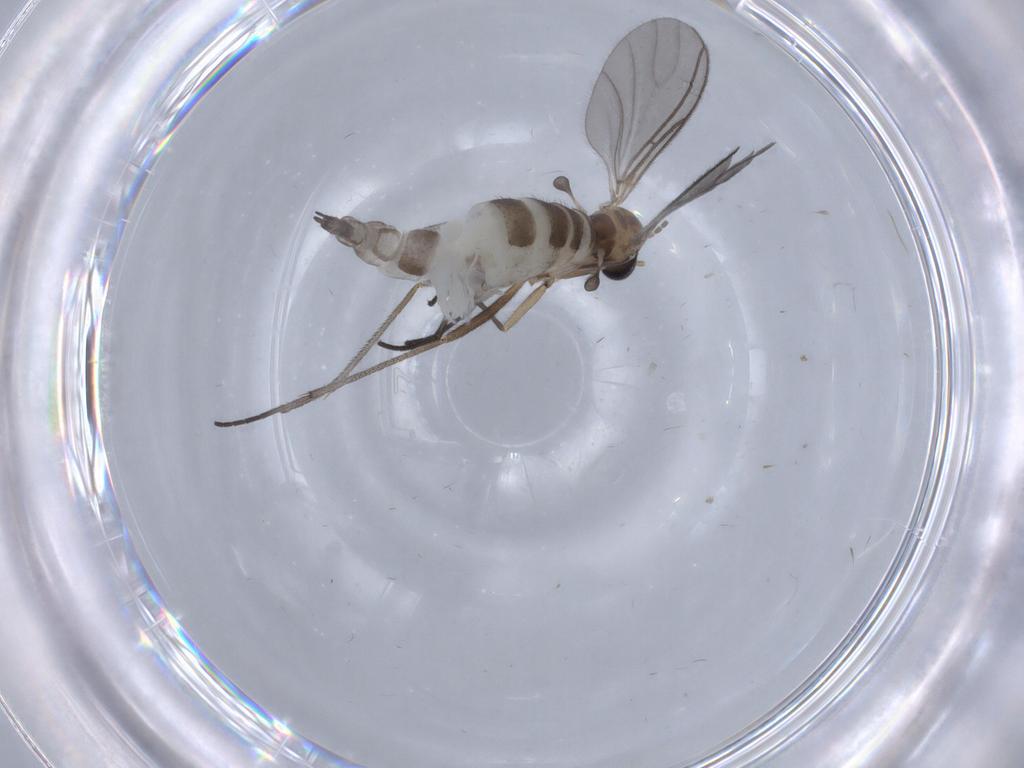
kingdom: Animalia
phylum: Arthropoda
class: Insecta
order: Diptera
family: Sciaridae
